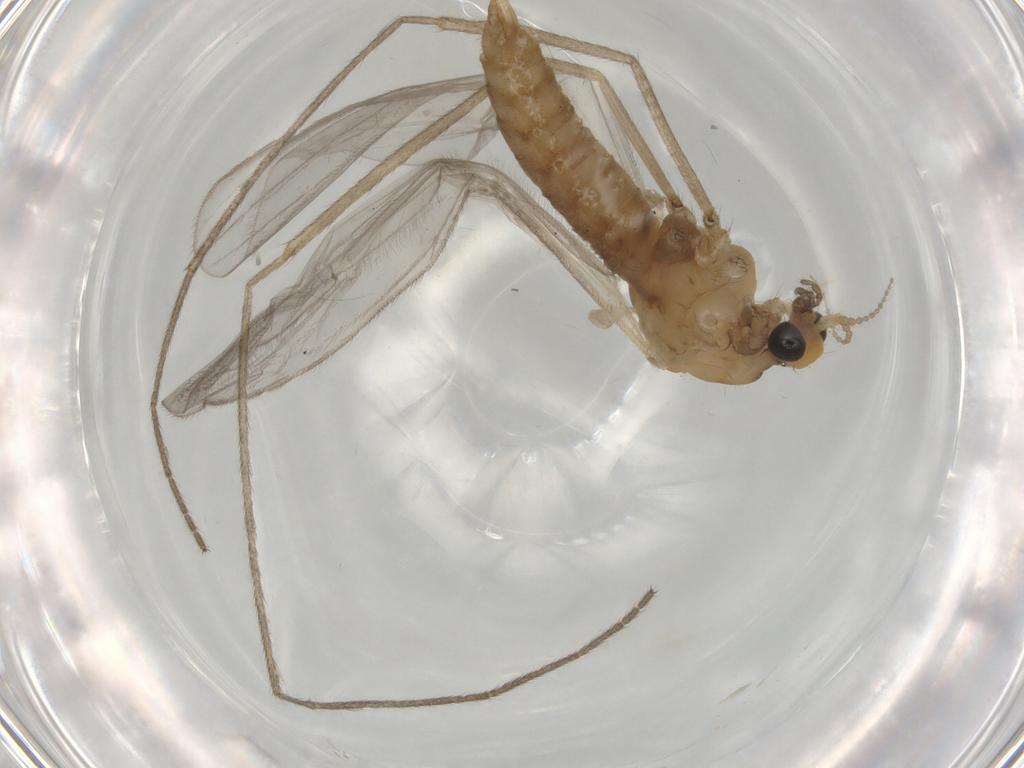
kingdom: Animalia
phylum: Arthropoda
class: Insecta
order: Diptera
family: Limoniidae
